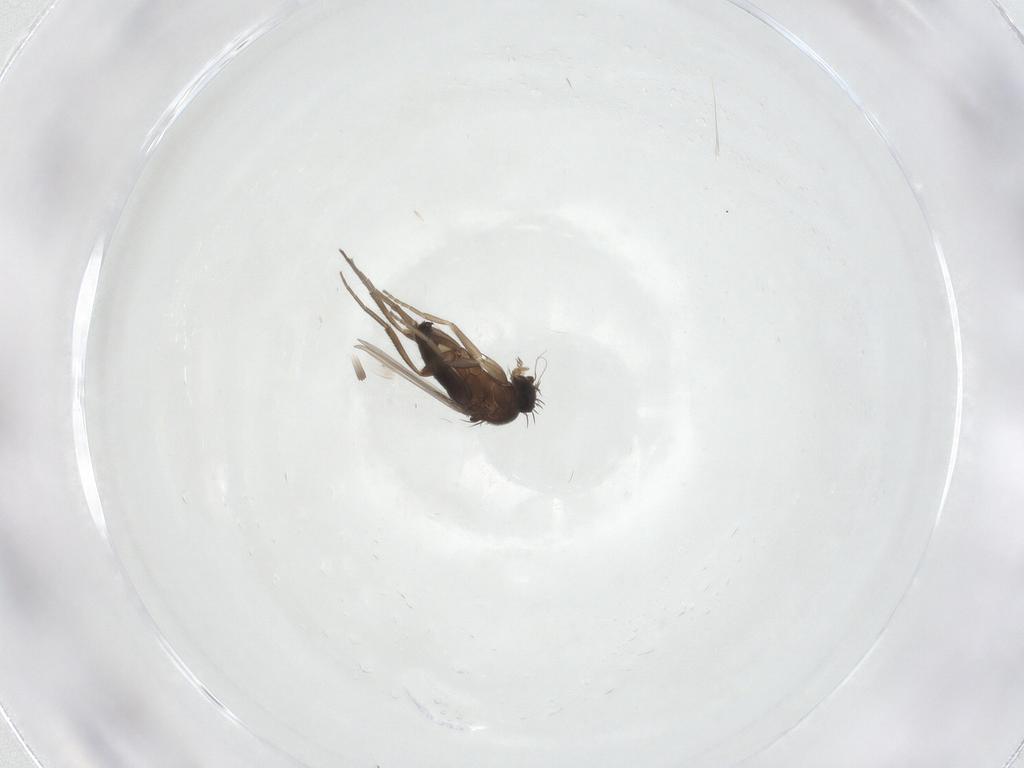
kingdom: Animalia
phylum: Arthropoda
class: Insecta
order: Diptera
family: Phoridae
